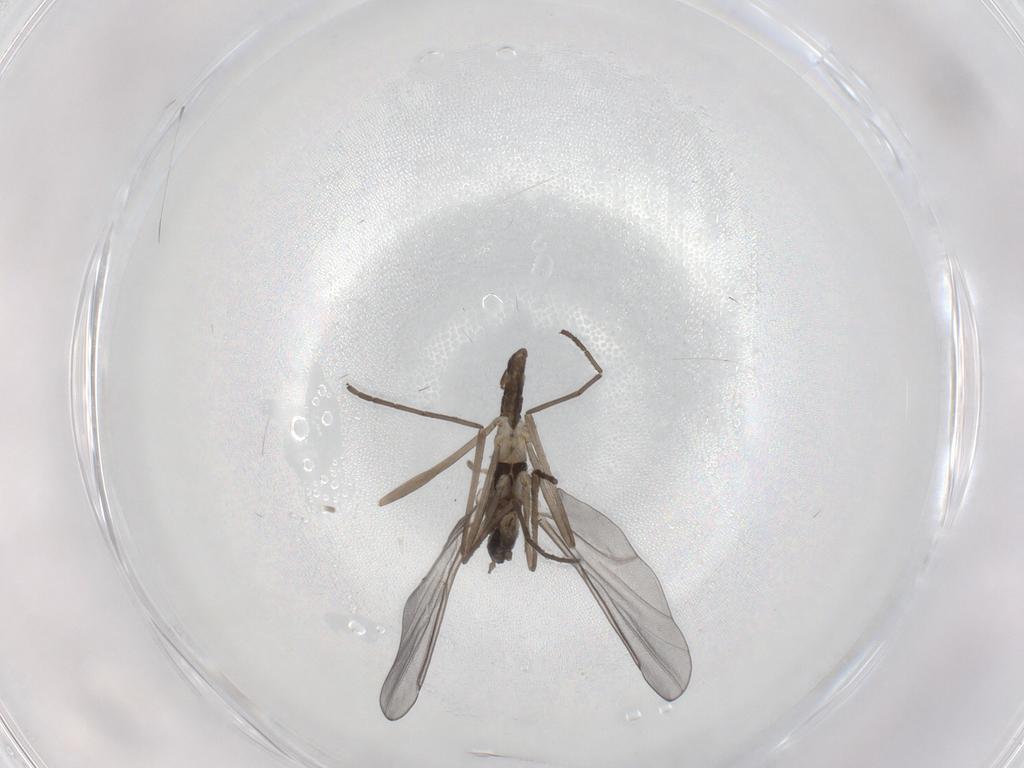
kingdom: Animalia
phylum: Arthropoda
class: Insecta
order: Diptera
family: Cecidomyiidae
